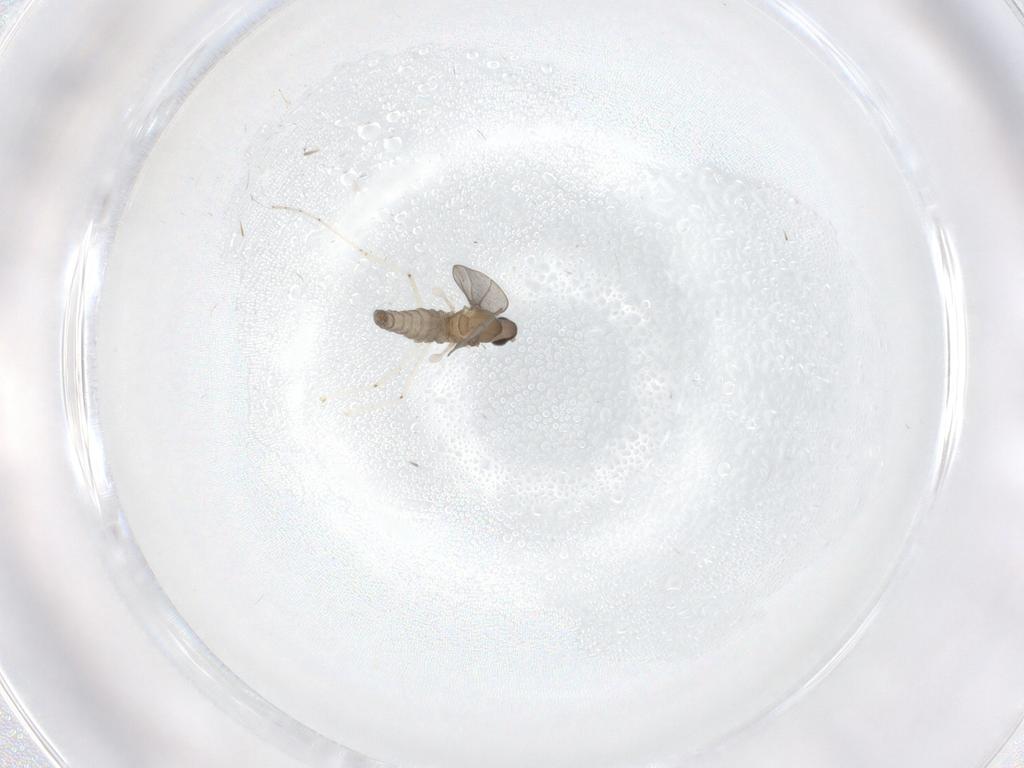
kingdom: Animalia
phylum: Arthropoda
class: Insecta
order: Diptera
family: Cecidomyiidae
